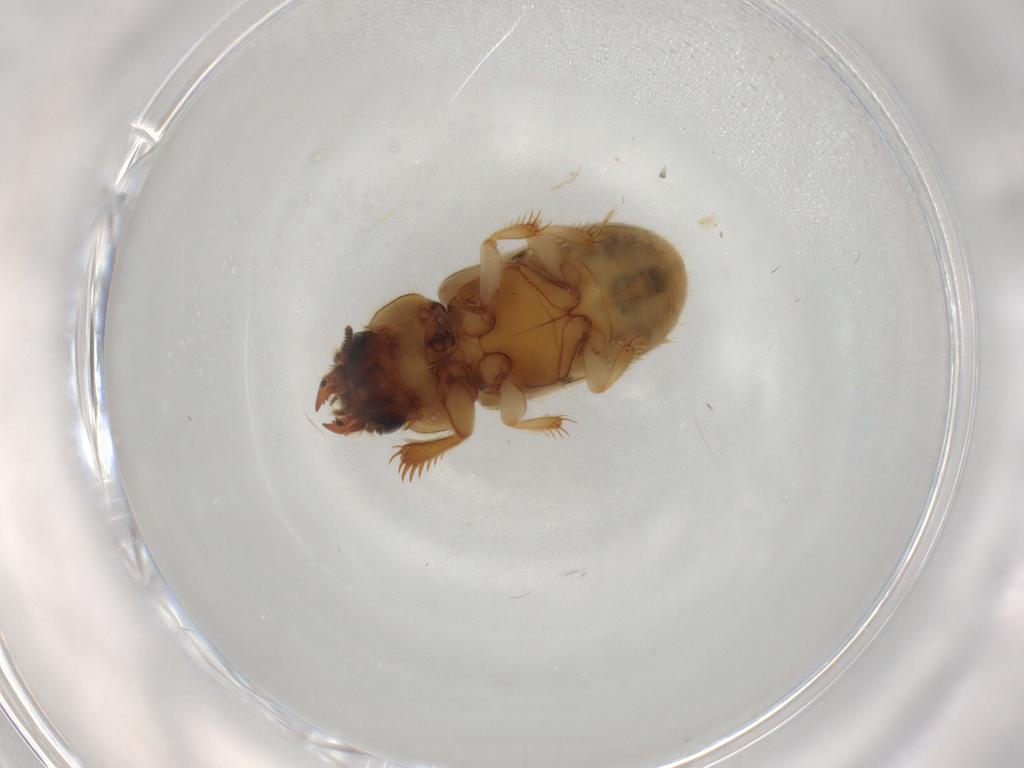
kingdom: Animalia
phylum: Arthropoda
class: Insecta
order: Coleoptera
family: Heteroceridae
